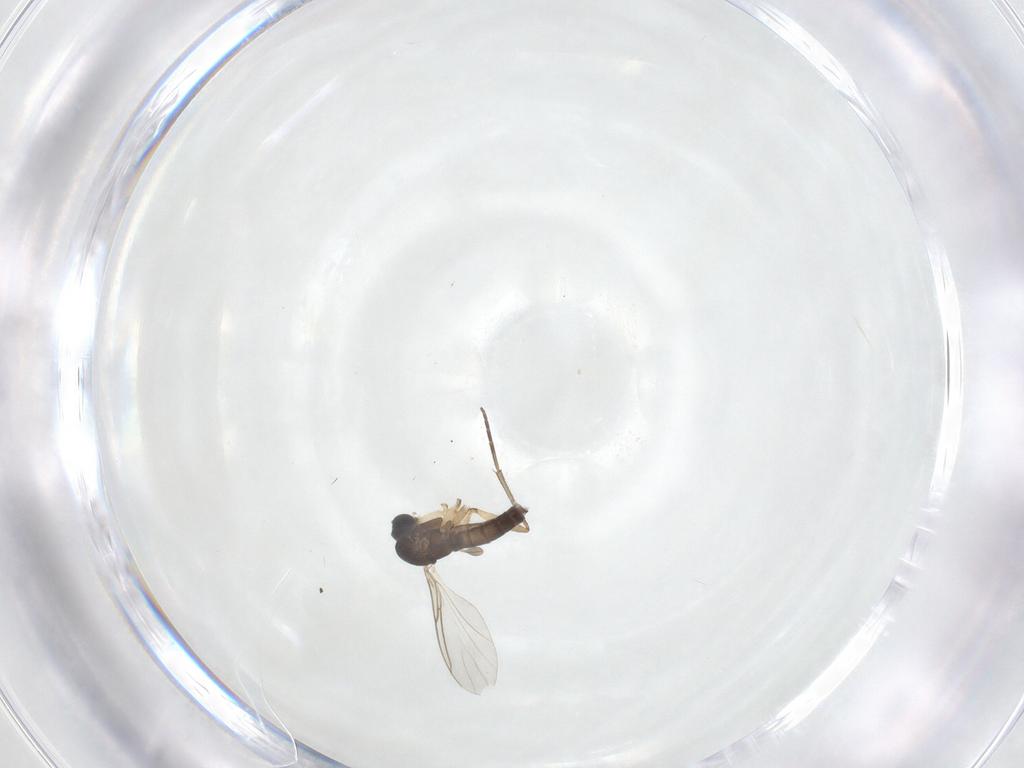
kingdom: Animalia
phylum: Arthropoda
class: Insecta
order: Diptera
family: Sciaridae
